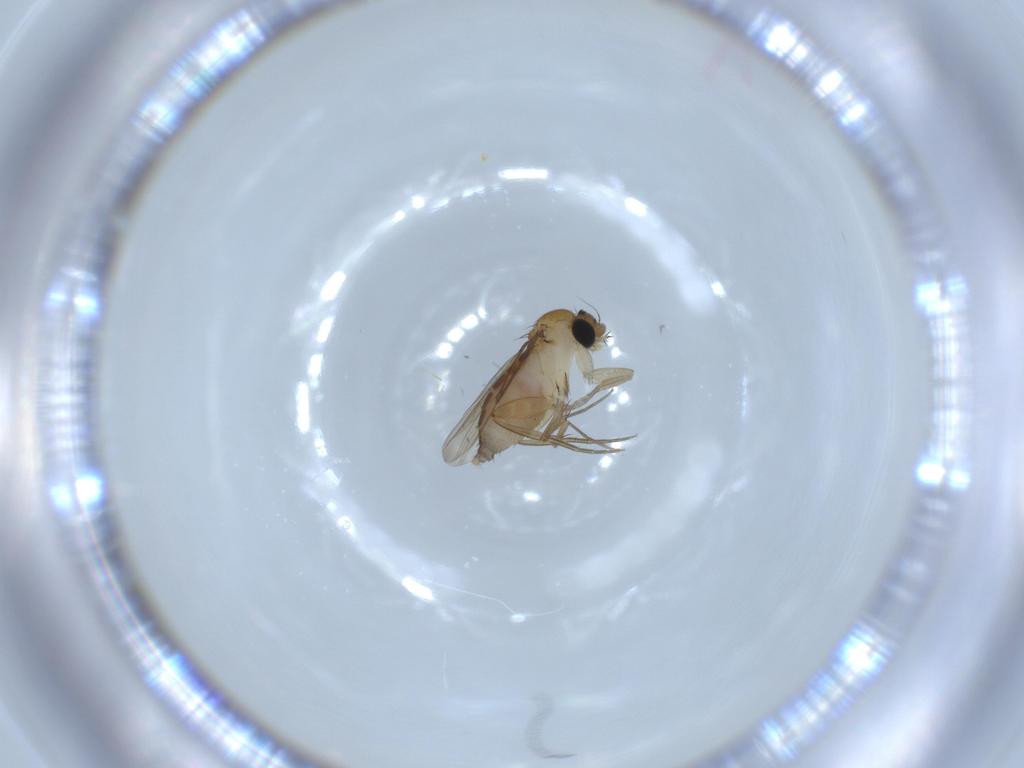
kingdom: Animalia
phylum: Arthropoda
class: Insecta
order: Diptera
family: Phoridae
